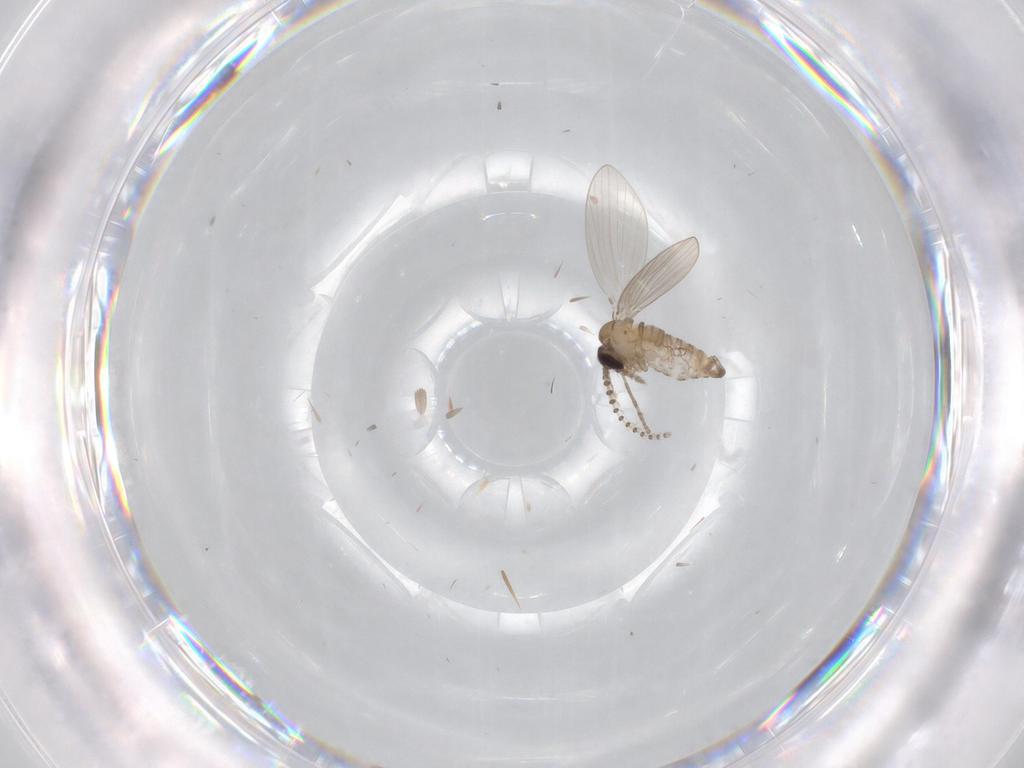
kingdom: Animalia
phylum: Arthropoda
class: Insecta
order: Diptera
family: Psychodidae
